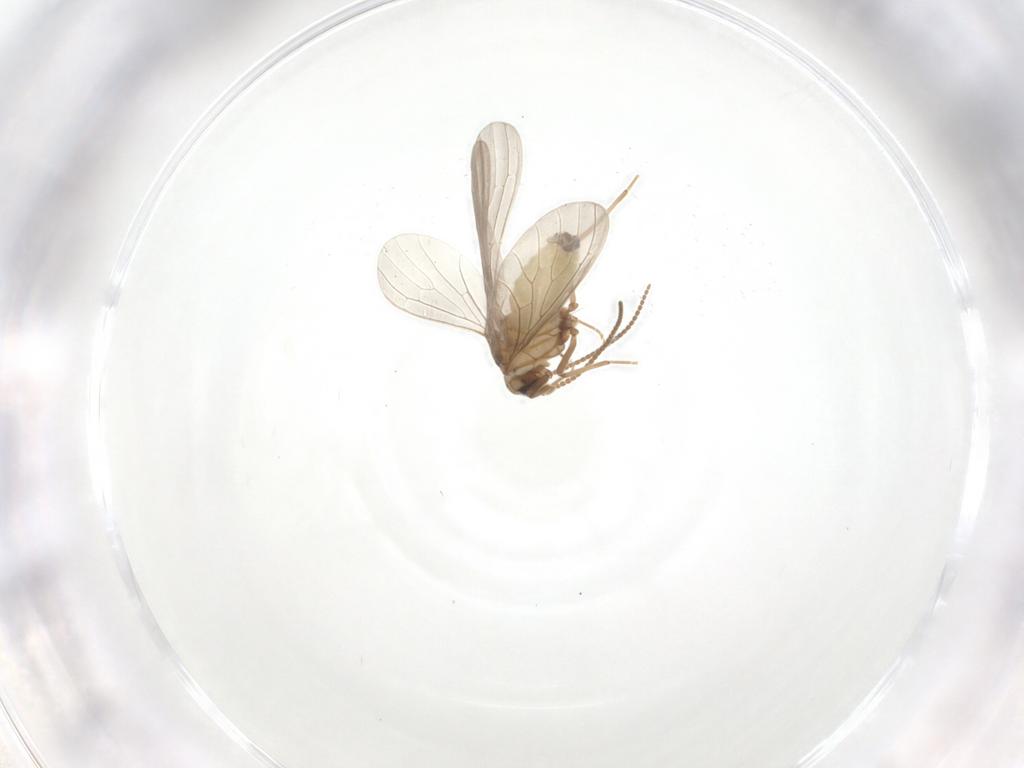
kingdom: Animalia
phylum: Arthropoda
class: Insecta
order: Neuroptera
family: Coniopterygidae
